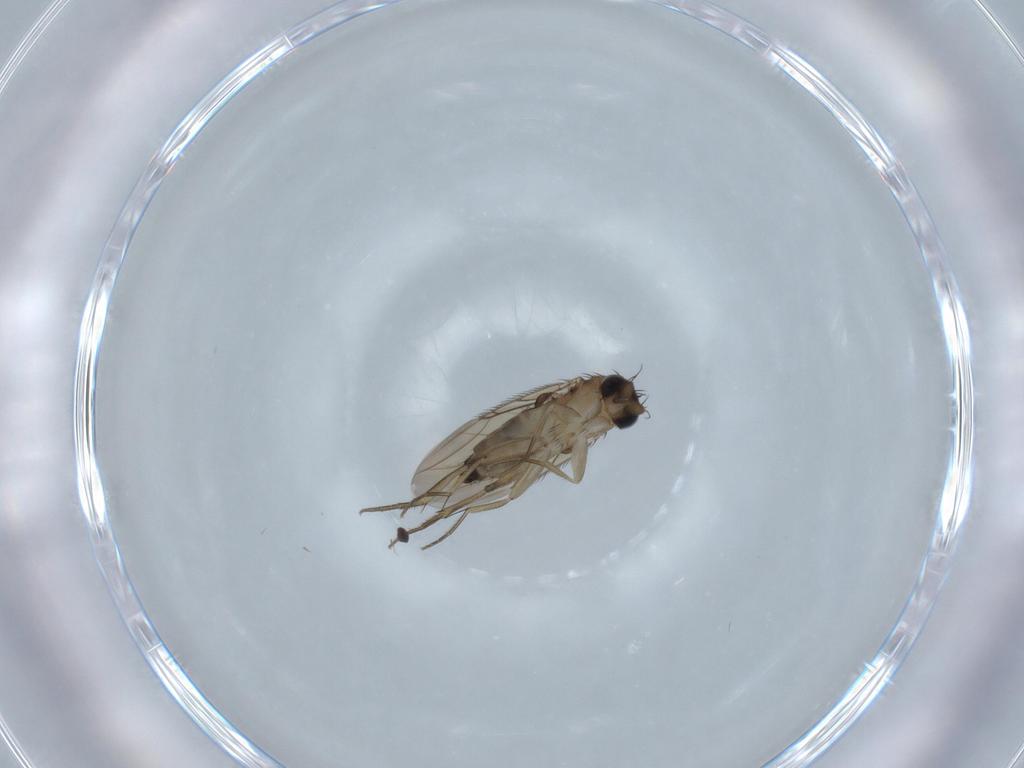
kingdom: Animalia
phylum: Arthropoda
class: Insecta
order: Diptera
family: Phoridae
